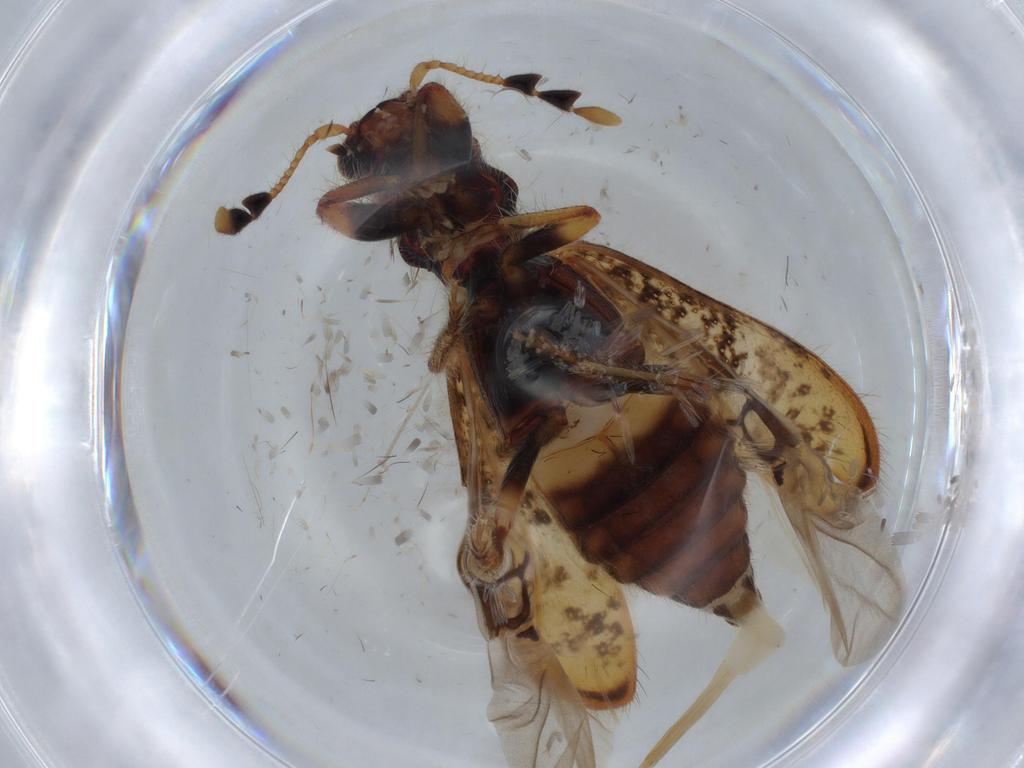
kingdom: Animalia
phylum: Arthropoda
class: Insecta
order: Coleoptera
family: Cleridae
